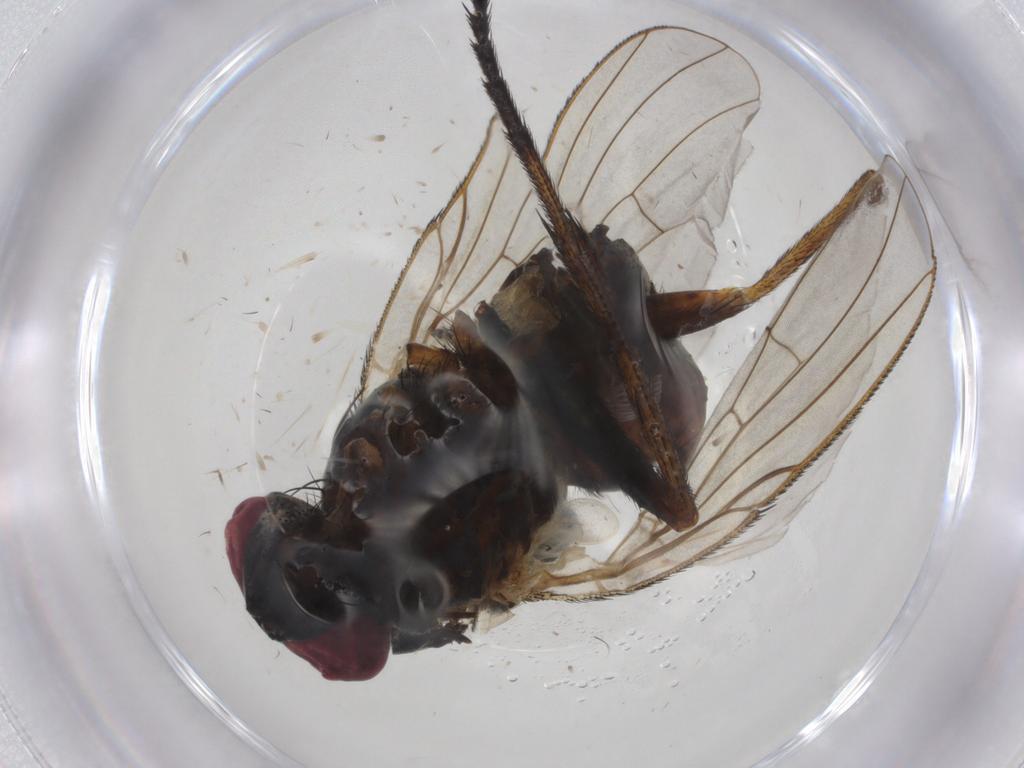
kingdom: Animalia
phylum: Arthropoda
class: Insecta
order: Diptera
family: Muscidae
